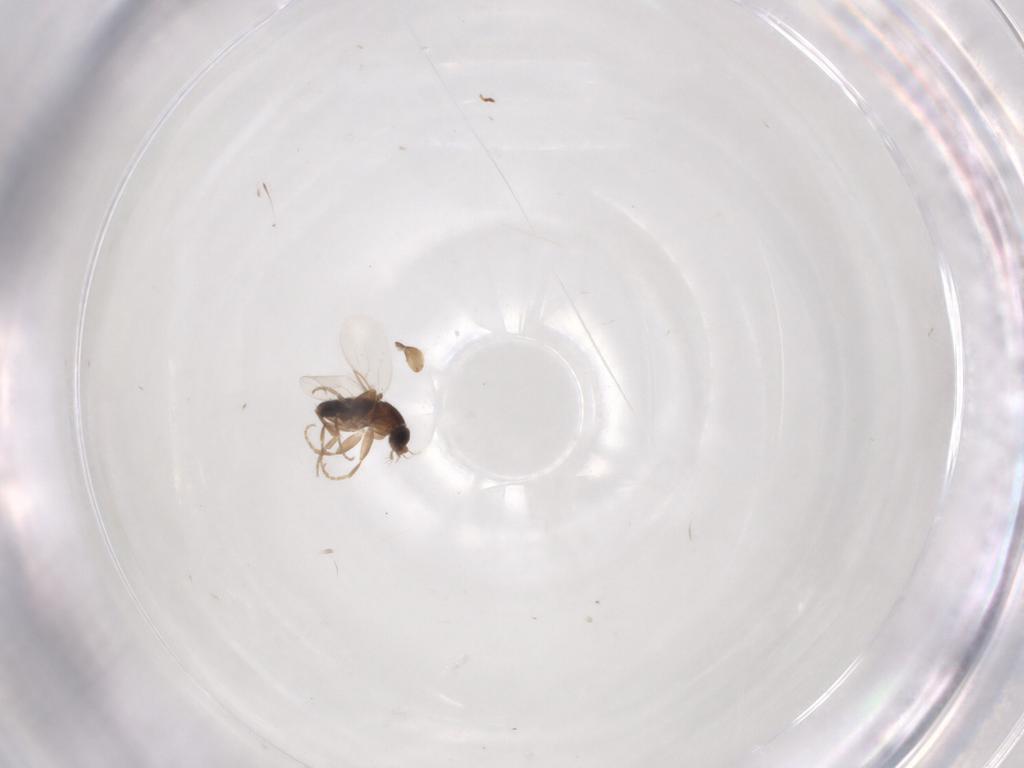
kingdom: Animalia
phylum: Arthropoda
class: Insecta
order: Diptera
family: Phoridae
